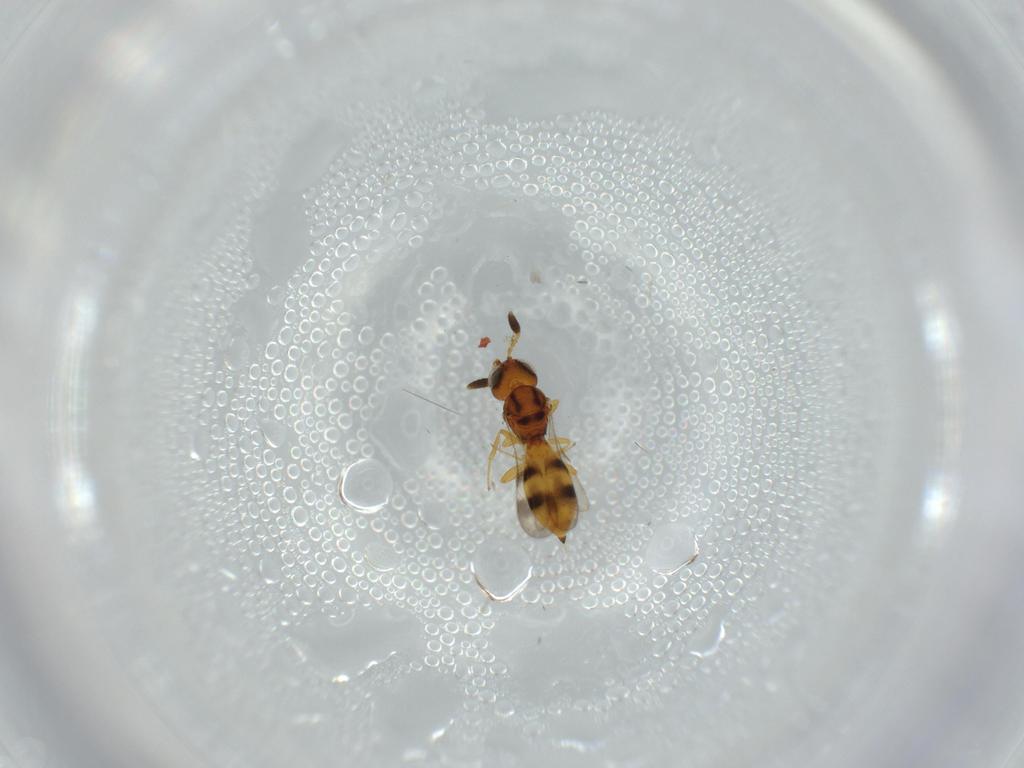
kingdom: Animalia
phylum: Arthropoda
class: Insecta
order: Hymenoptera
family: Scelionidae
